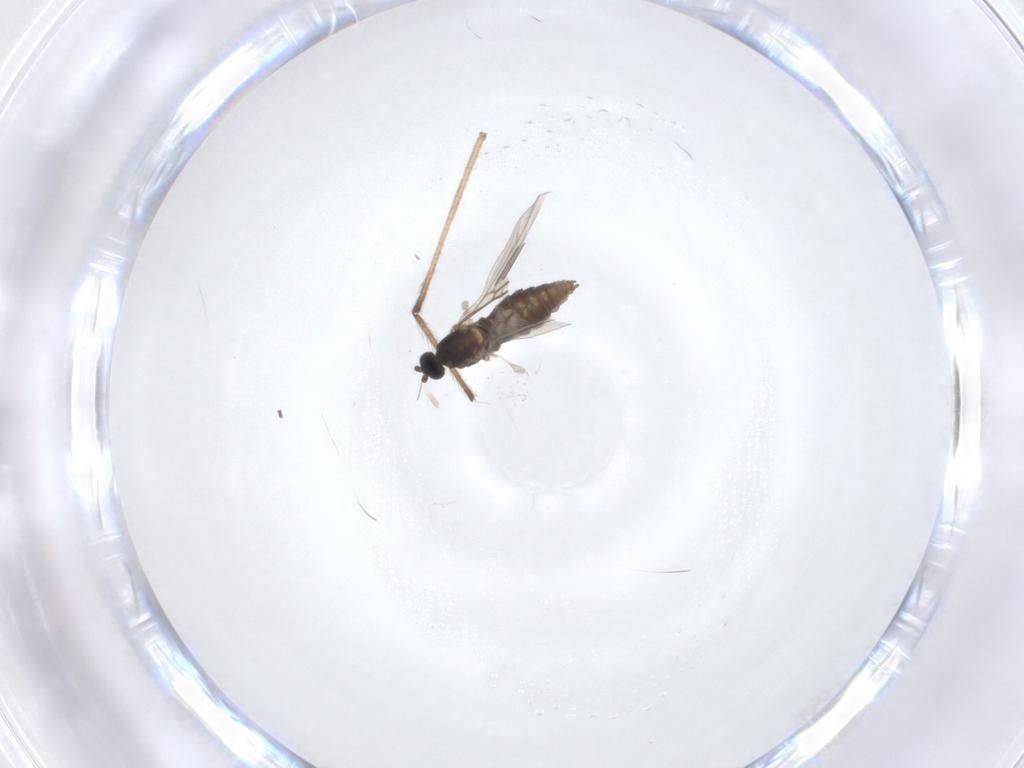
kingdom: Animalia
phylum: Arthropoda
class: Insecta
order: Diptera
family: Cecidomyiidae
